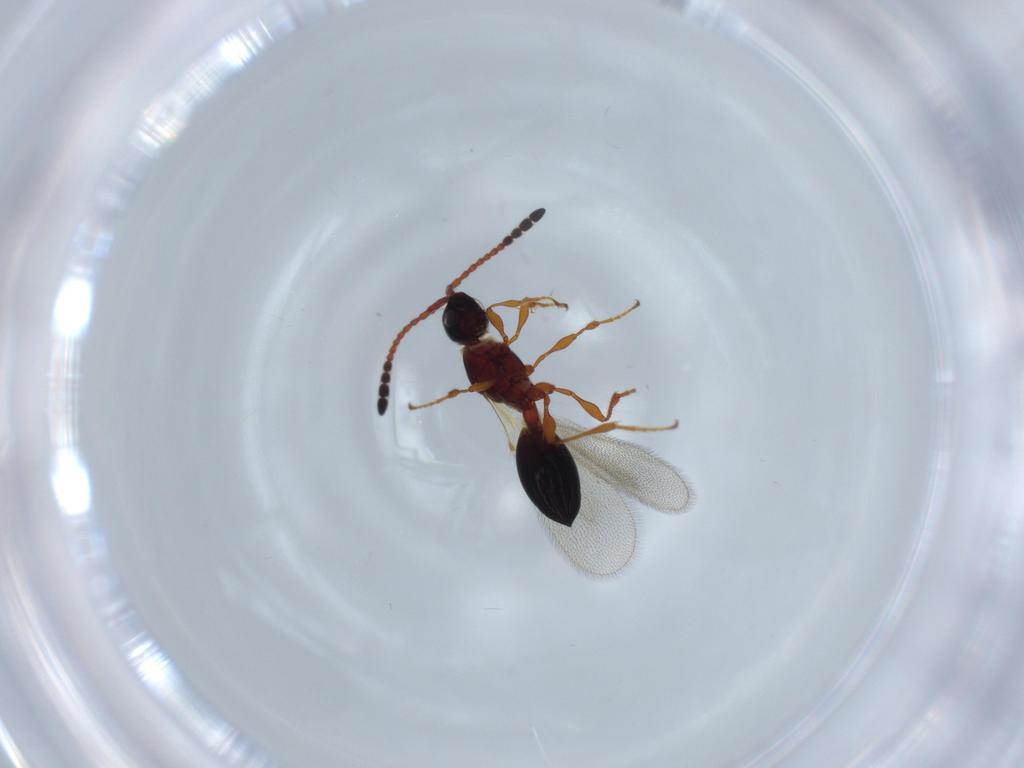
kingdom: Animalia
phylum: Arthropoda
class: Insecta
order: Hymenoptera
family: Diapriidae
